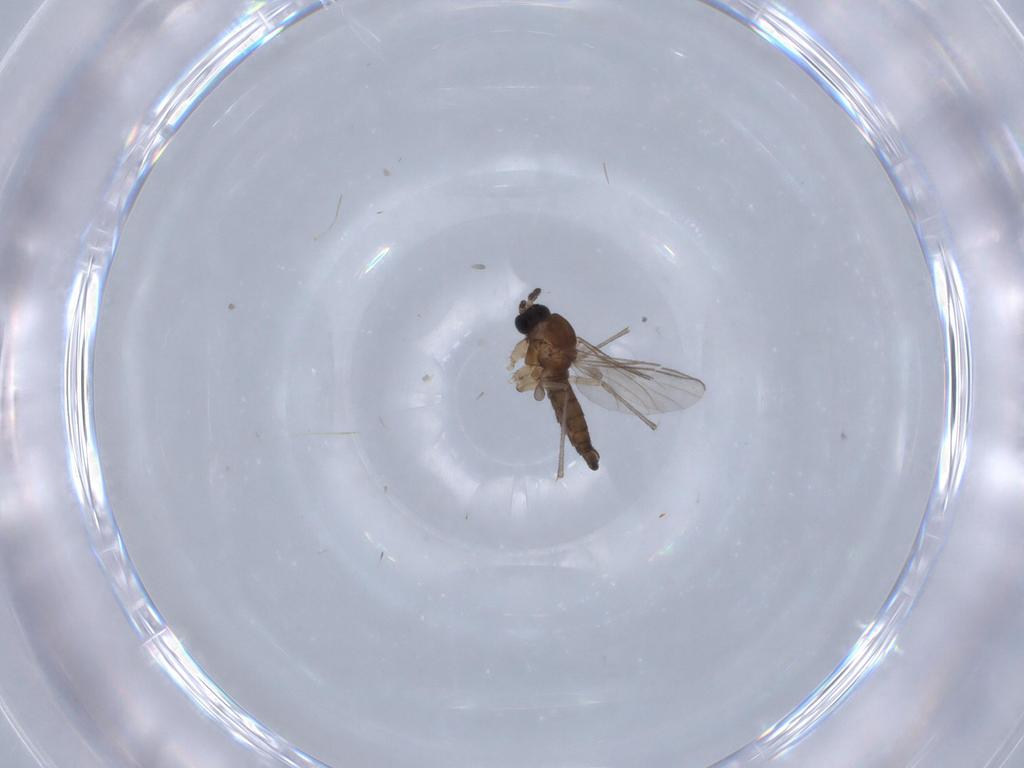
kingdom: Animalia
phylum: Arthropoda
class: Insecta
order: Diptera
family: Sciaridae
